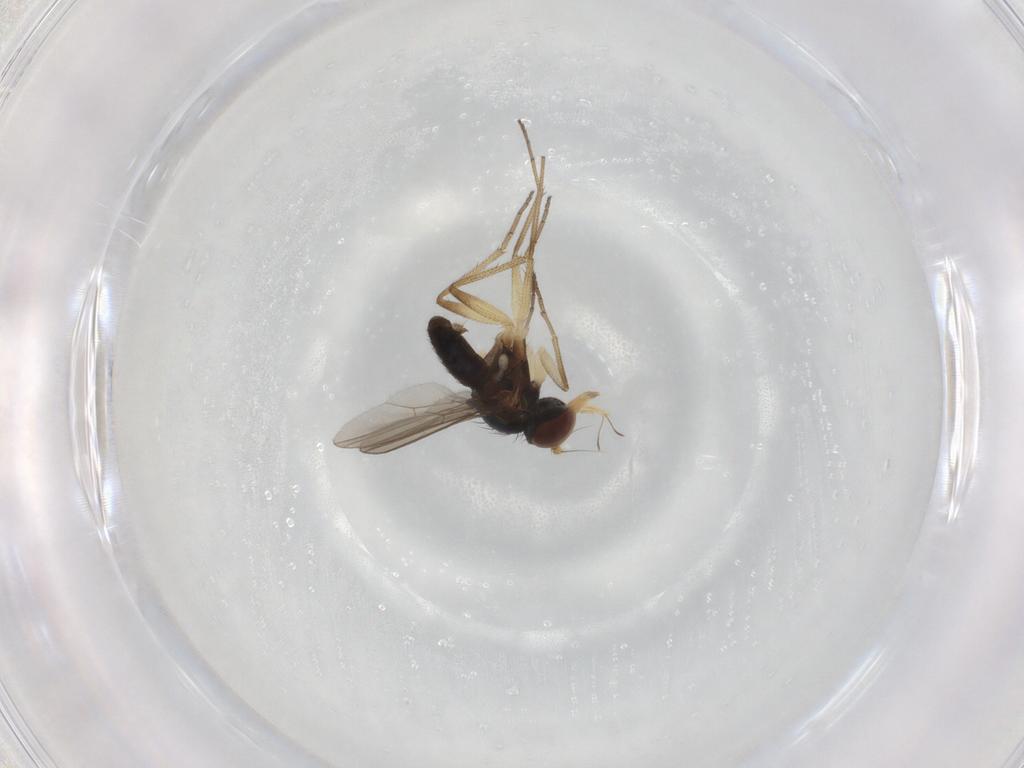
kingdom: Animalia
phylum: Arthropoda
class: Insecta
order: Diptera
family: Dolichopodidae
